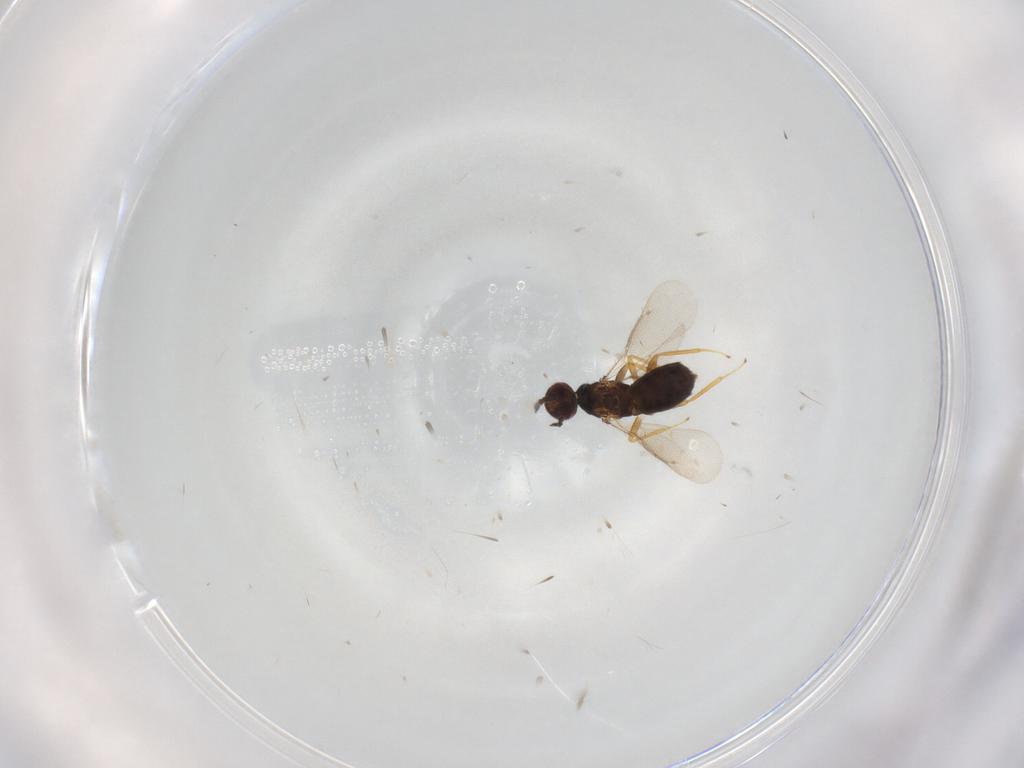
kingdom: Animalia
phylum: Arthropoda
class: Insecta
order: Hymenoptera
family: Eulophidae
